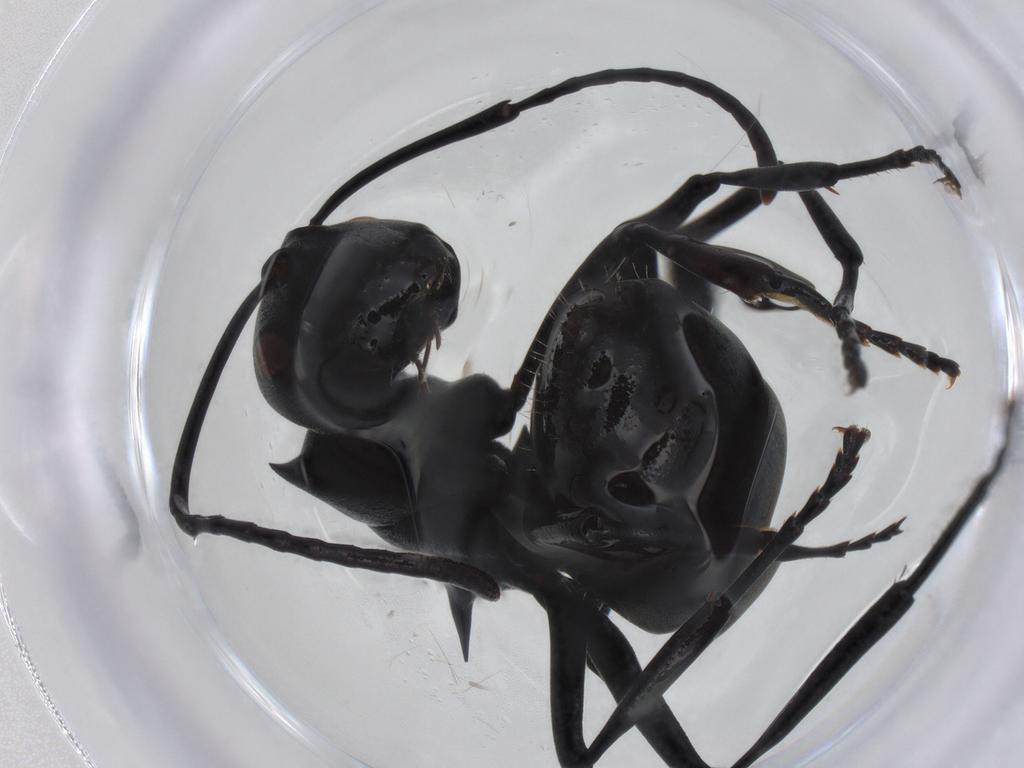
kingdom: Animalia
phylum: Arthropoda
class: Insecta
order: Hymenoptera
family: Formicidae
